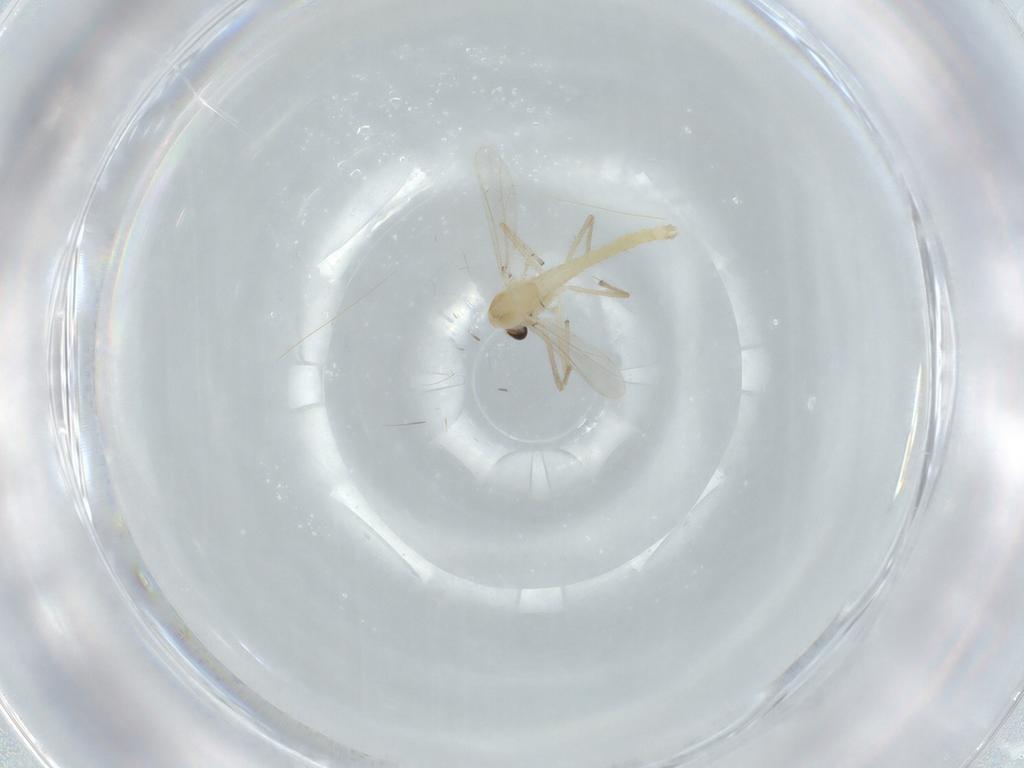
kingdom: Animalia
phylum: Arthropoda
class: Insecta
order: Diptera
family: Chironomidae
